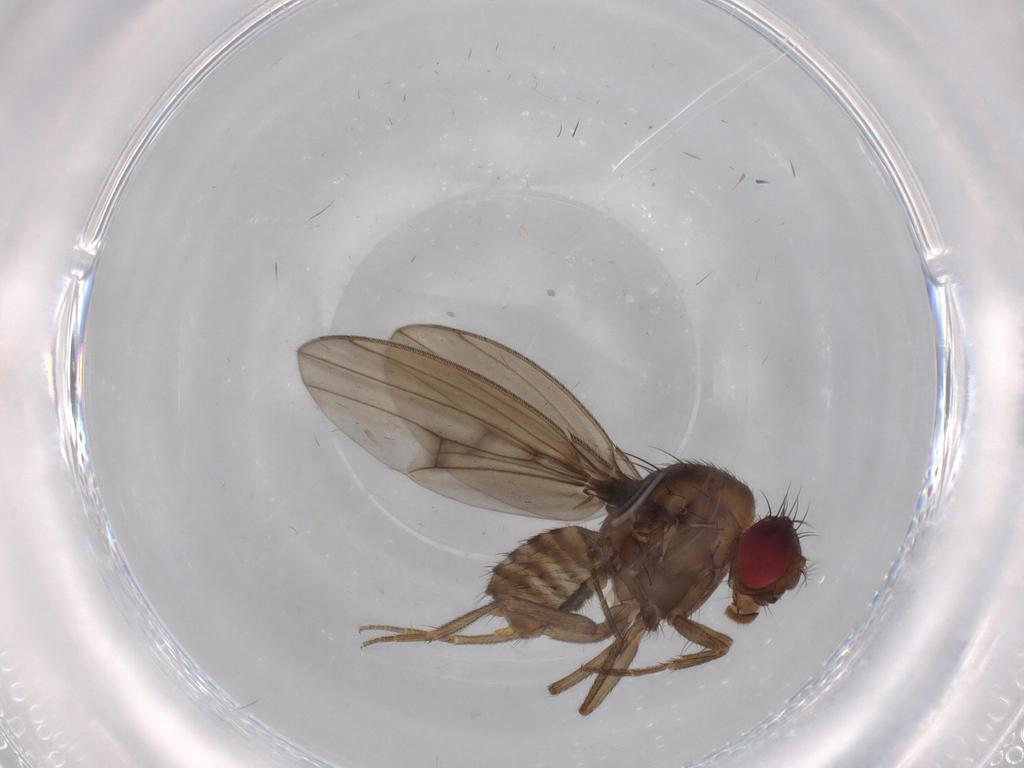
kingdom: Animalia
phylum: Arthropoda
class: Insecta
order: Diptera
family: Drosophilidae
